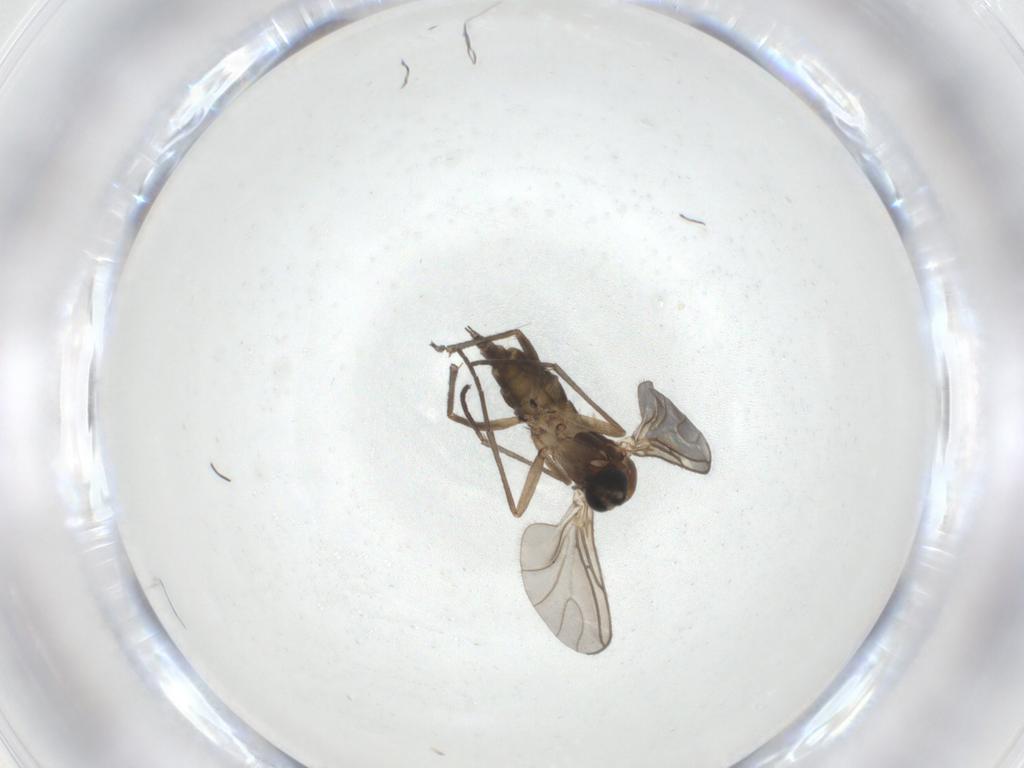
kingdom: Animalia
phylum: Arthropoda
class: Insecta
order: Diptera
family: Sciaridae
